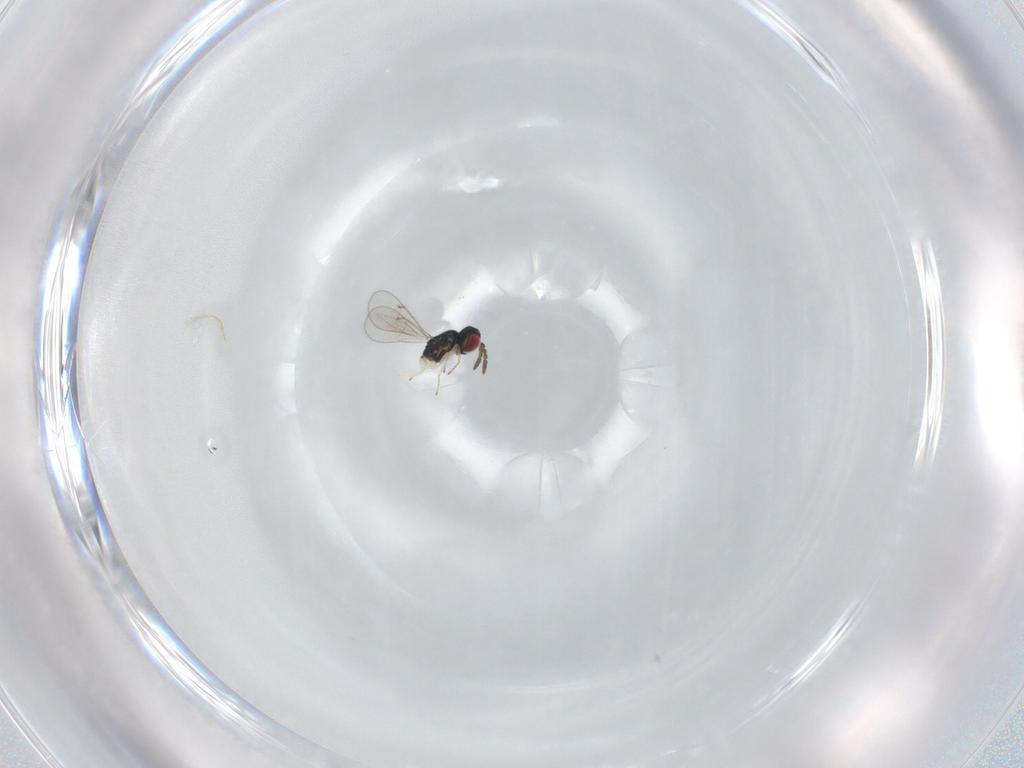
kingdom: Animalia
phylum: Arthropoda
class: Insecta
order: Hymenoptera
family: Eulophidae
